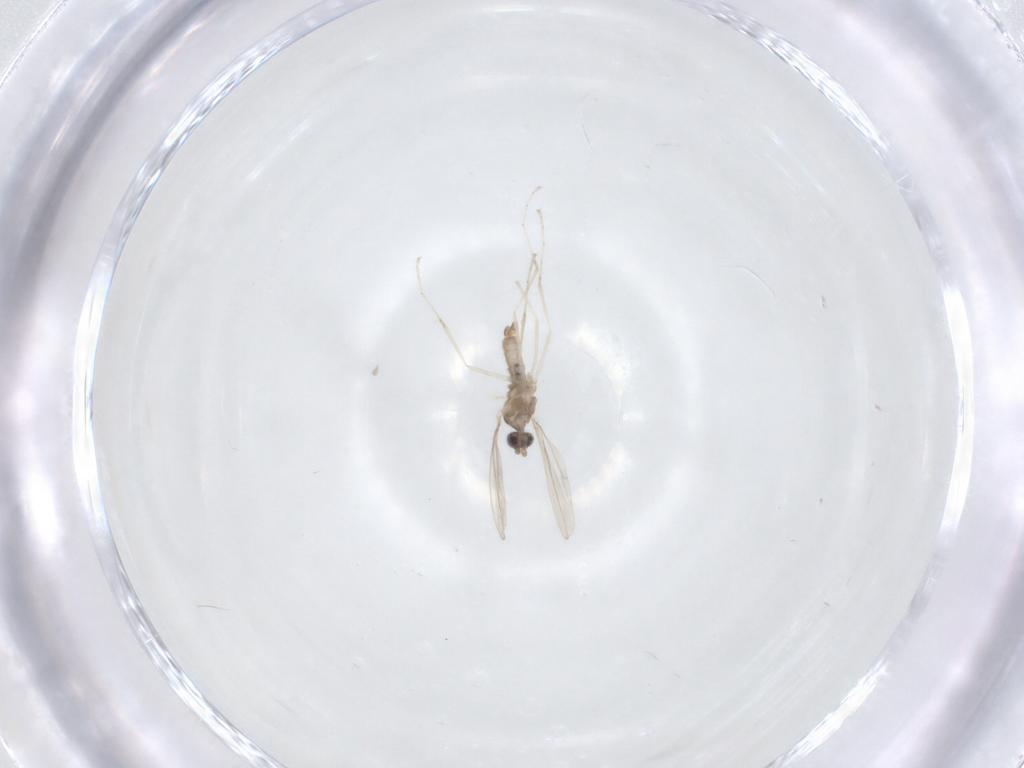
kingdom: Animalia
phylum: Arthropoda
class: Insecta
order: Diptera
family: Cecidomyiidae
